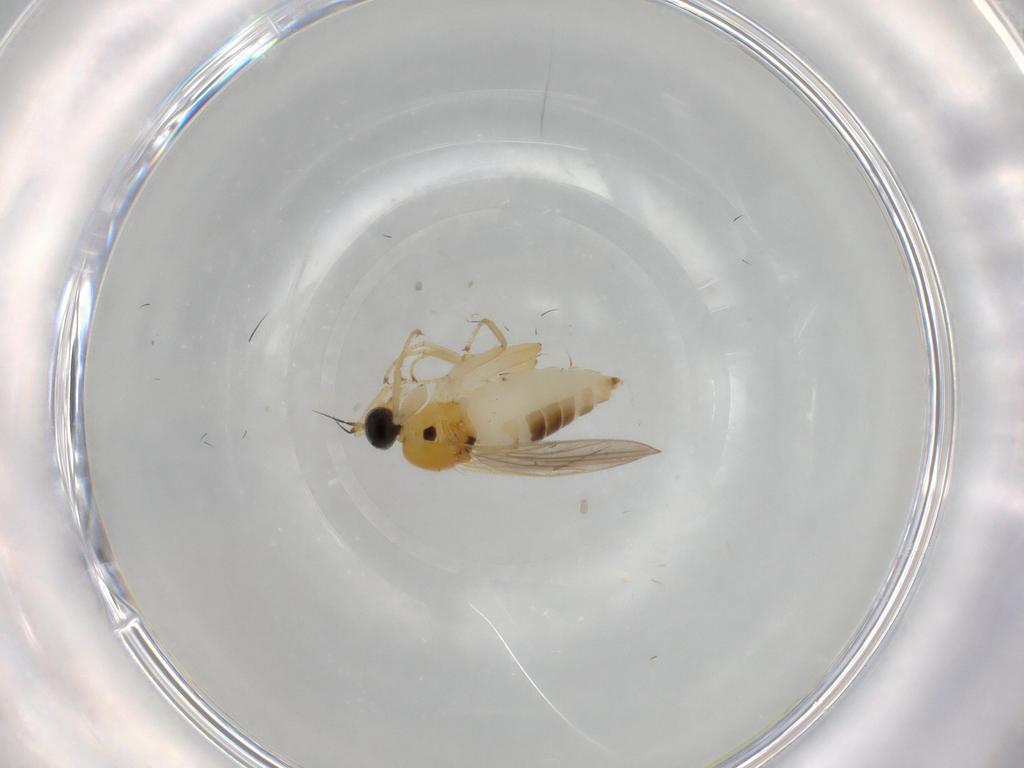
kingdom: Animalia
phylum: Arthropoda
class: Insecta
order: Diptera
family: Hybotidae
